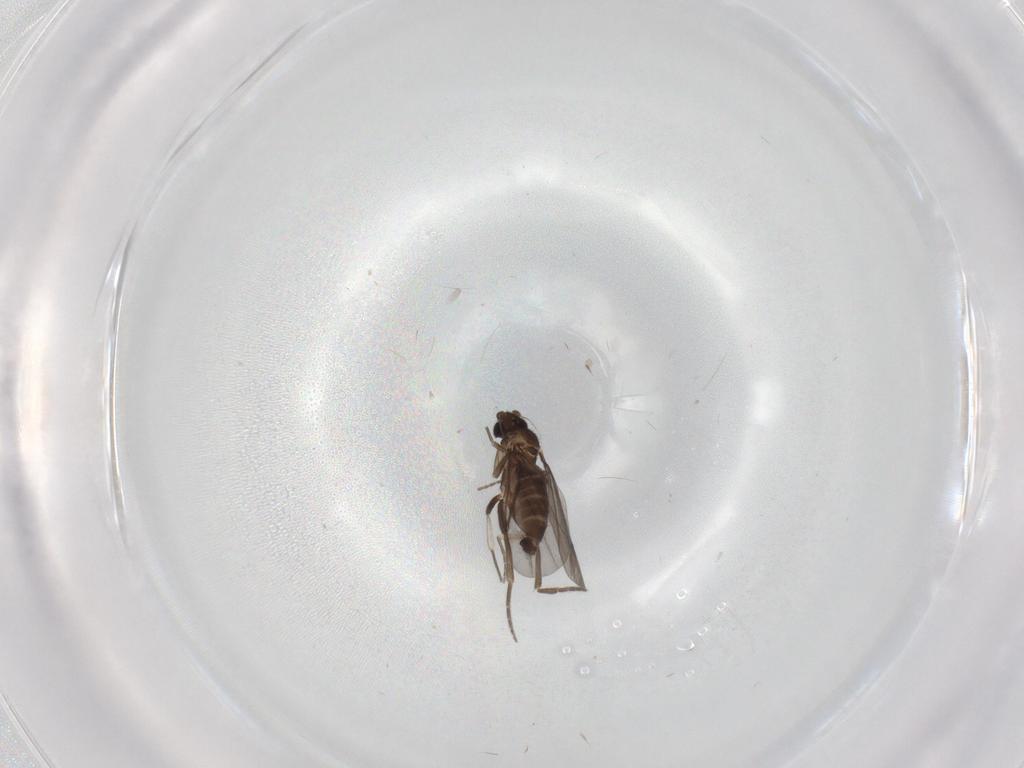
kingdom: Animalia
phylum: Arthropoda
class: Insecta
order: Diptera
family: Phoridae
